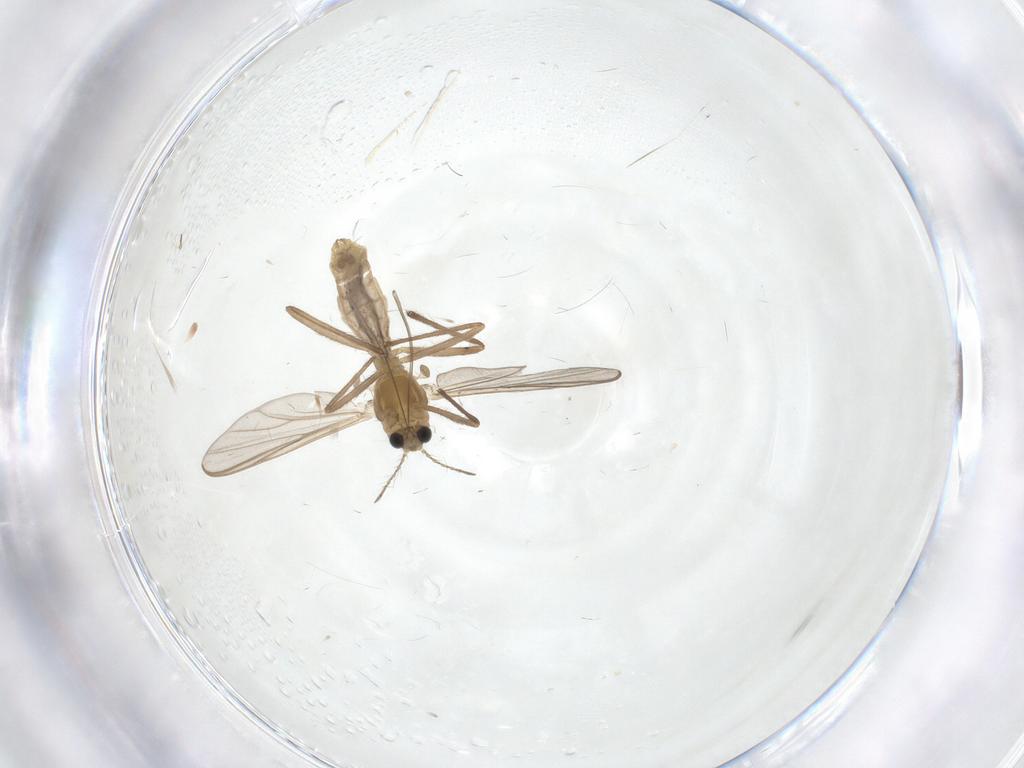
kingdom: Animalia
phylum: Arthropoda
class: Insecta
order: Diptera
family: Chironomidae
